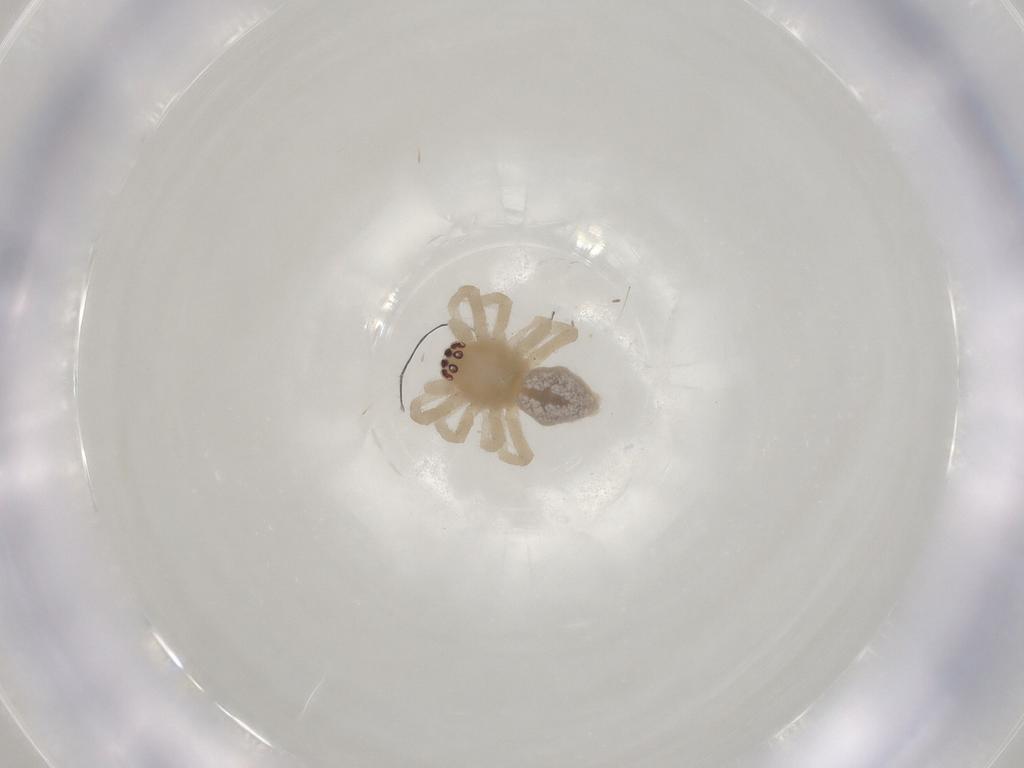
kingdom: Animalia
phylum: Arthropoda
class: Arachnida
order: Araneae
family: Cheiracanthiidae
